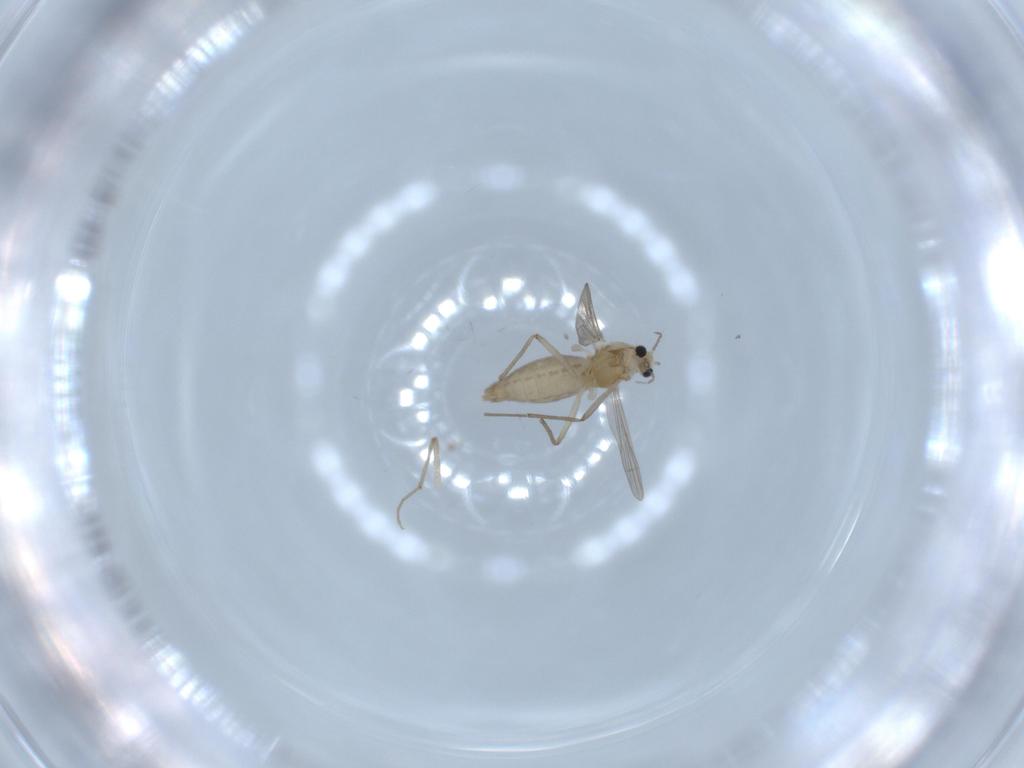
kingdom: Animalia
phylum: Arthropoda
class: Insecta
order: Diptera
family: Chironomidae
